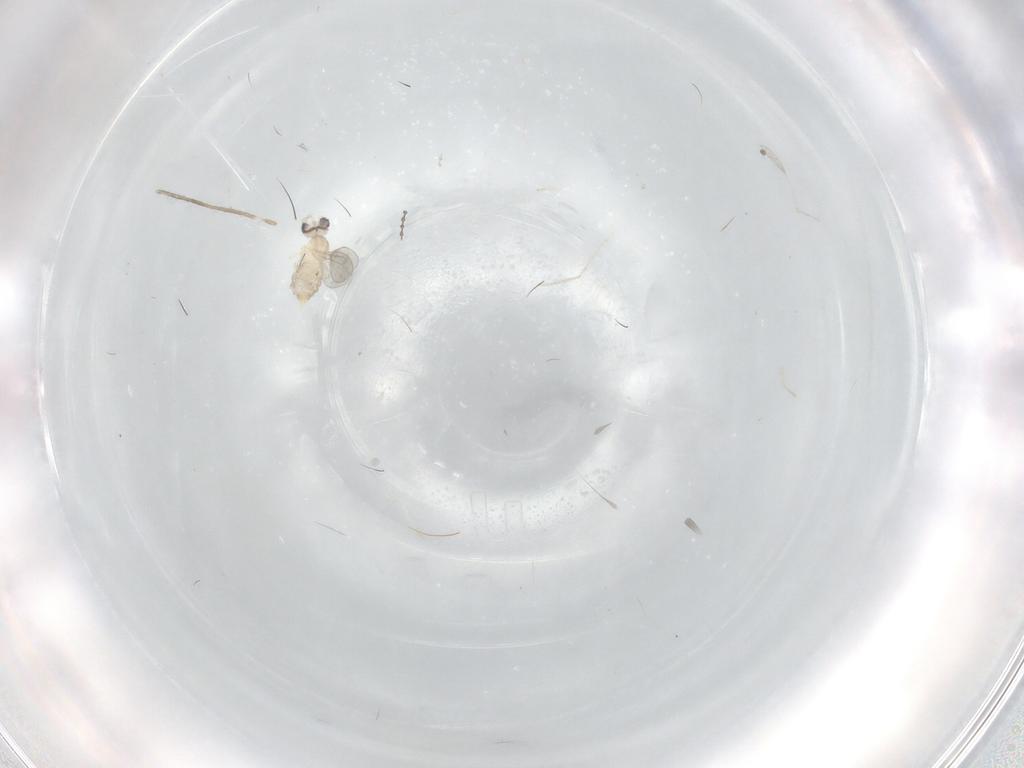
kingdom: Animalia
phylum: Arthropoda
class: Insecta
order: Diptera
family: Cecidomyiidae
